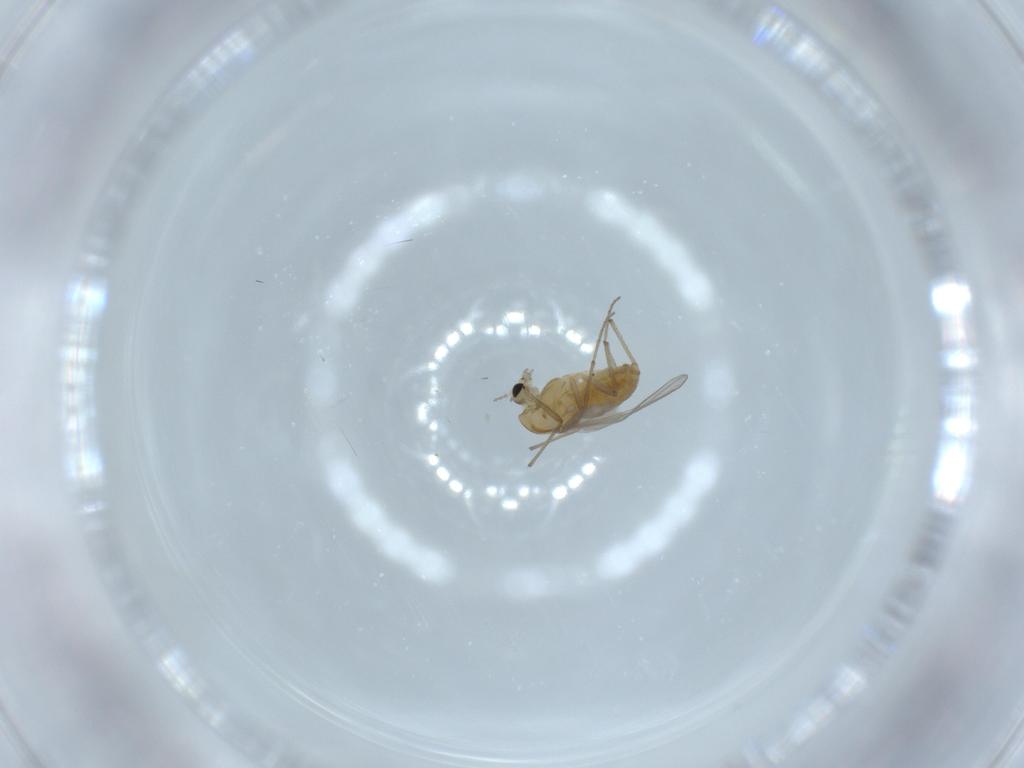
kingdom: Animalia
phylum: Arthropoda
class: Insecta
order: Diptera
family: Chironomidae
